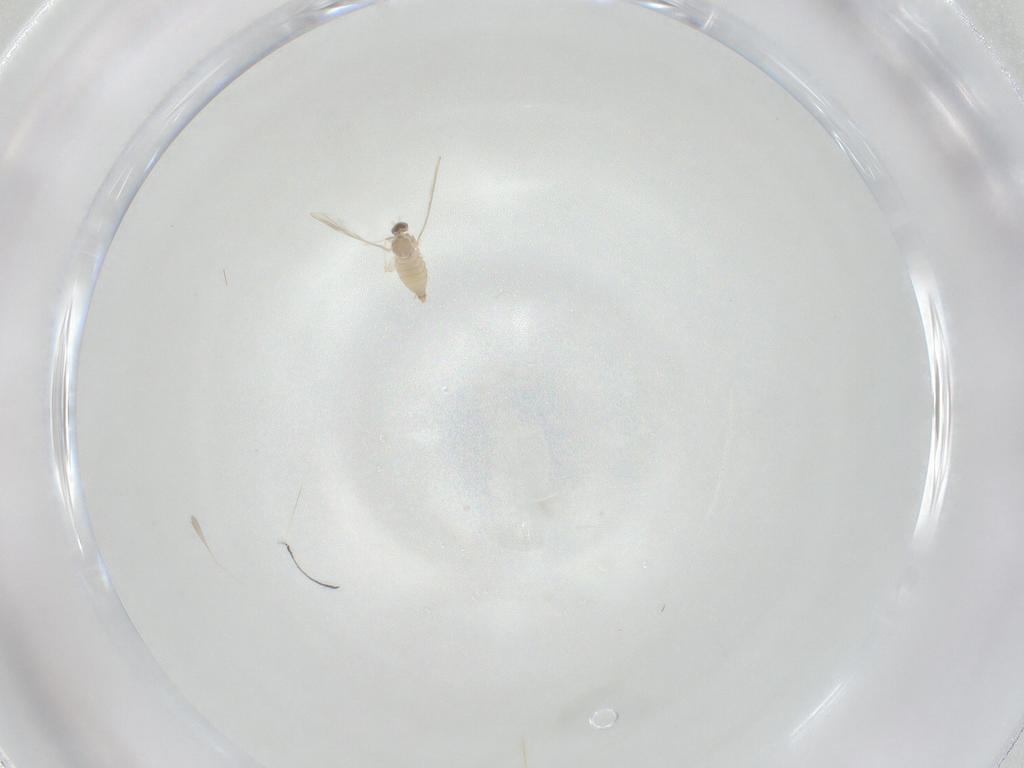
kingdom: Animalia
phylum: Arthropoda
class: Insecta
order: Diptera
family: Cecidomyiidae
